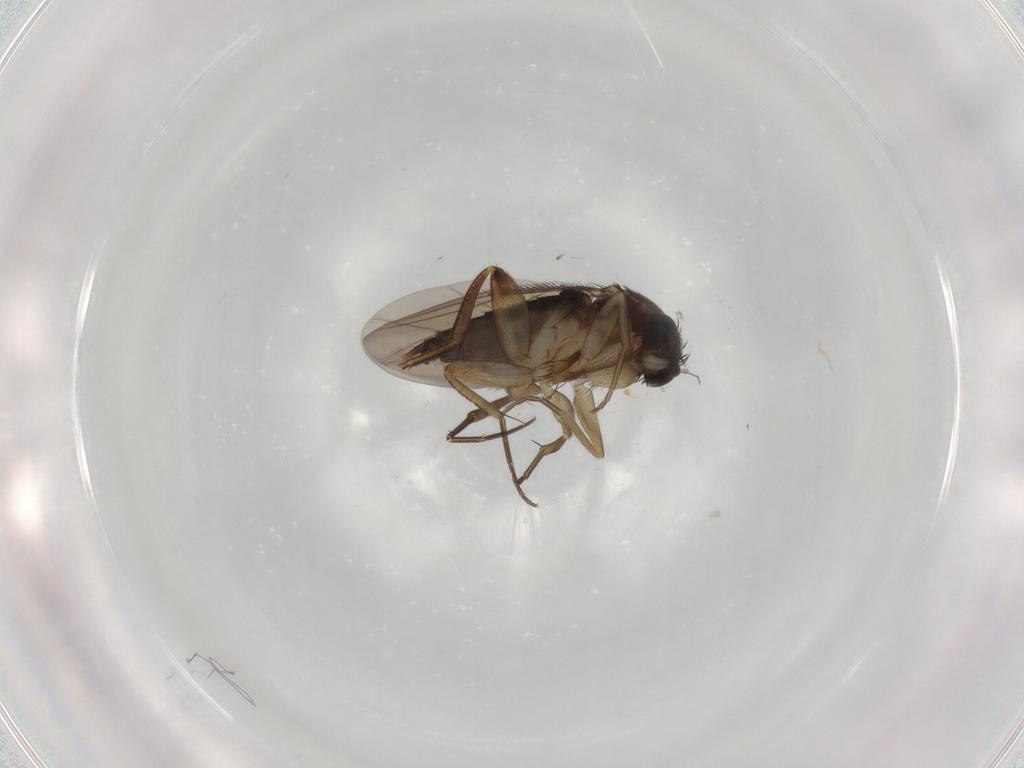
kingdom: Animalia
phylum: Arthropoda
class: Insecta
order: Diptera
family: Phoridae
